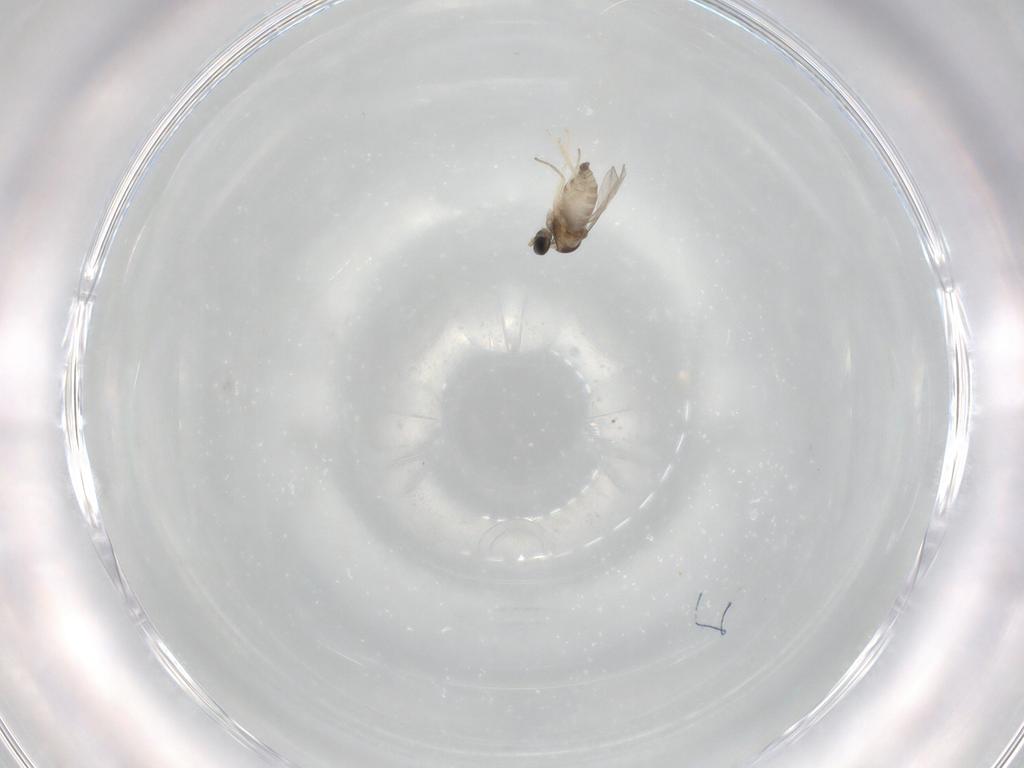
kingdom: Animalia
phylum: Arthropoda
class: Insecta
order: Diptera
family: Cecidomyiidae
